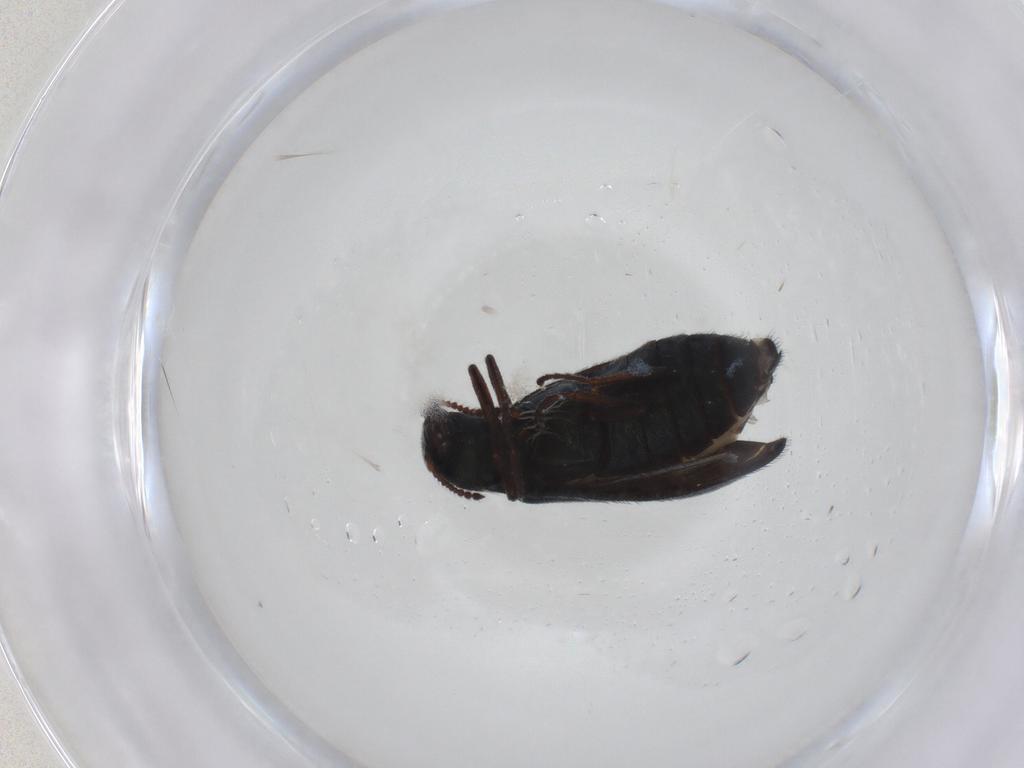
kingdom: Animalia
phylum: Arthropoda
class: Insecta
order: Coleoptera
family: Melyridae
